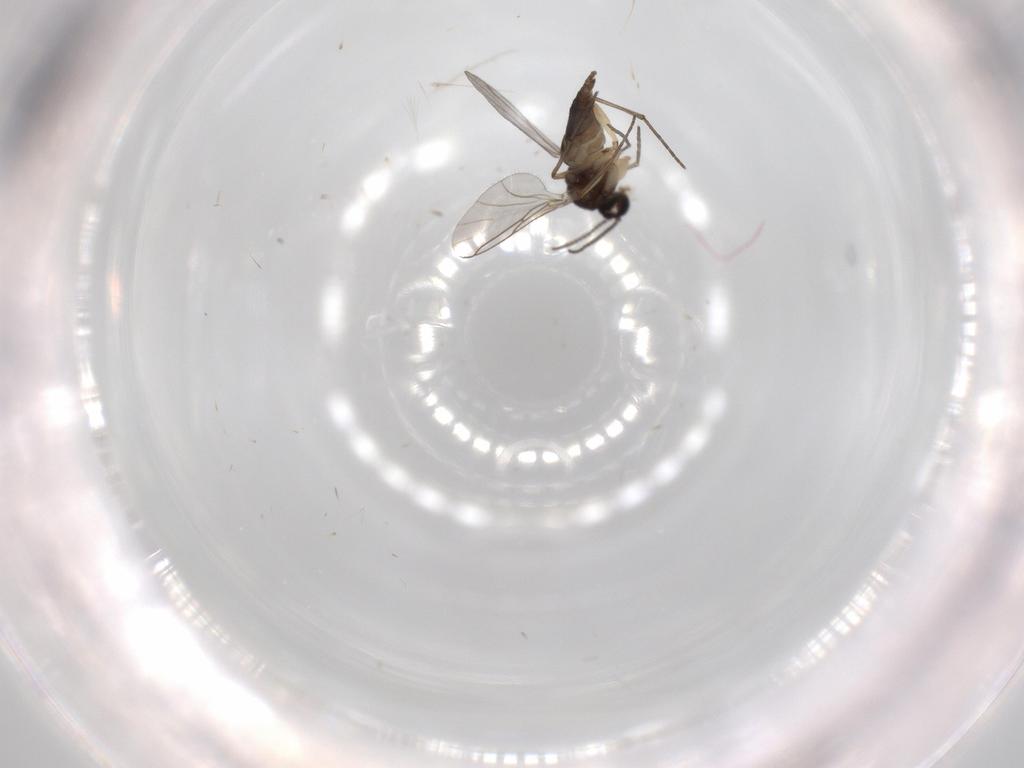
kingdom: Animalia
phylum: Arthropoda
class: Insecta
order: Diptera
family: Sciaridae
